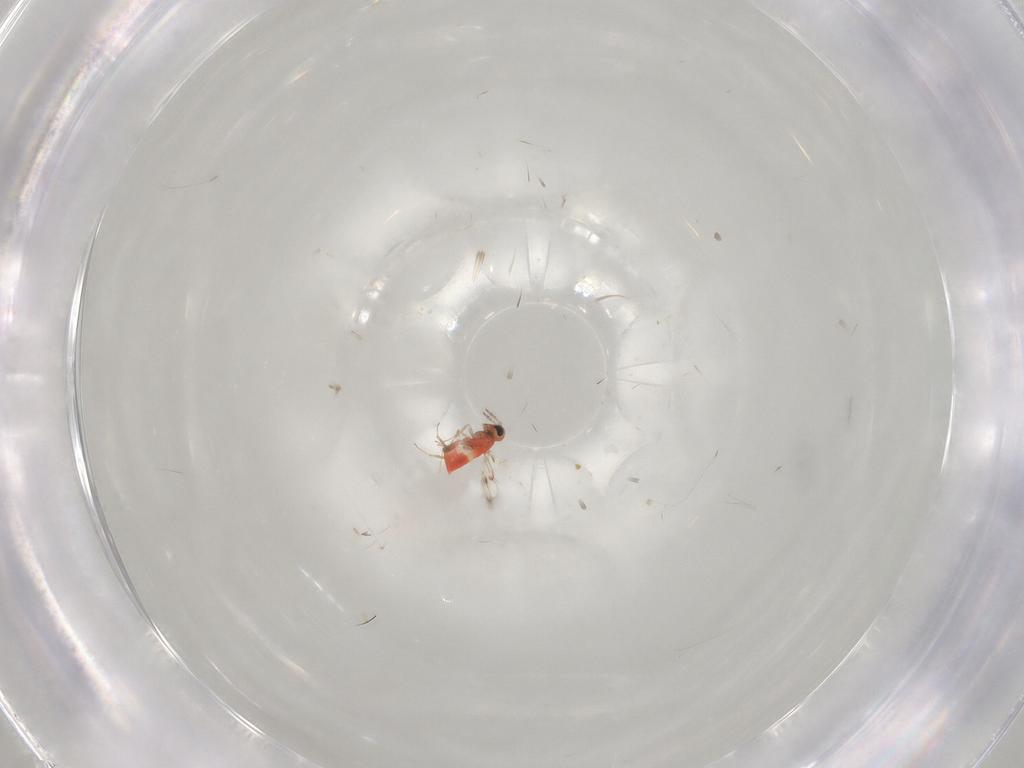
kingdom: Animalia
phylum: Arthropoda
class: Insecta
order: Hymenoptera
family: Trichogrammatidae
